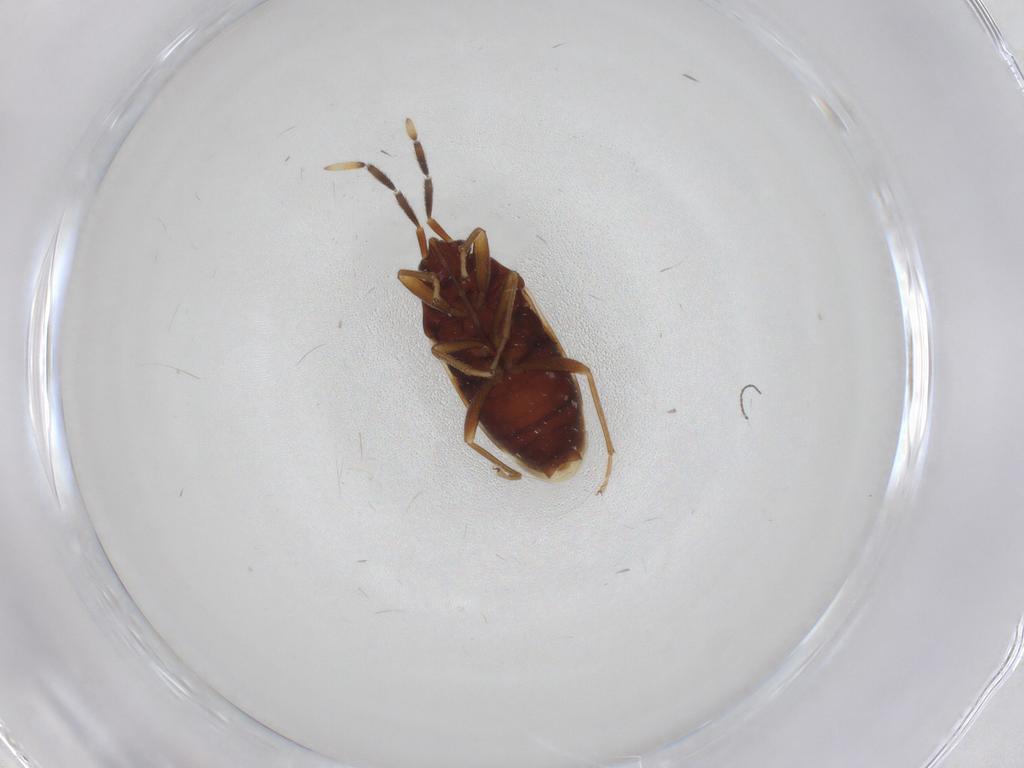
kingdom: Animalia
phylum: Arthropoda
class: Insecta
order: Hemiptera
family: Rhyparochromidae
